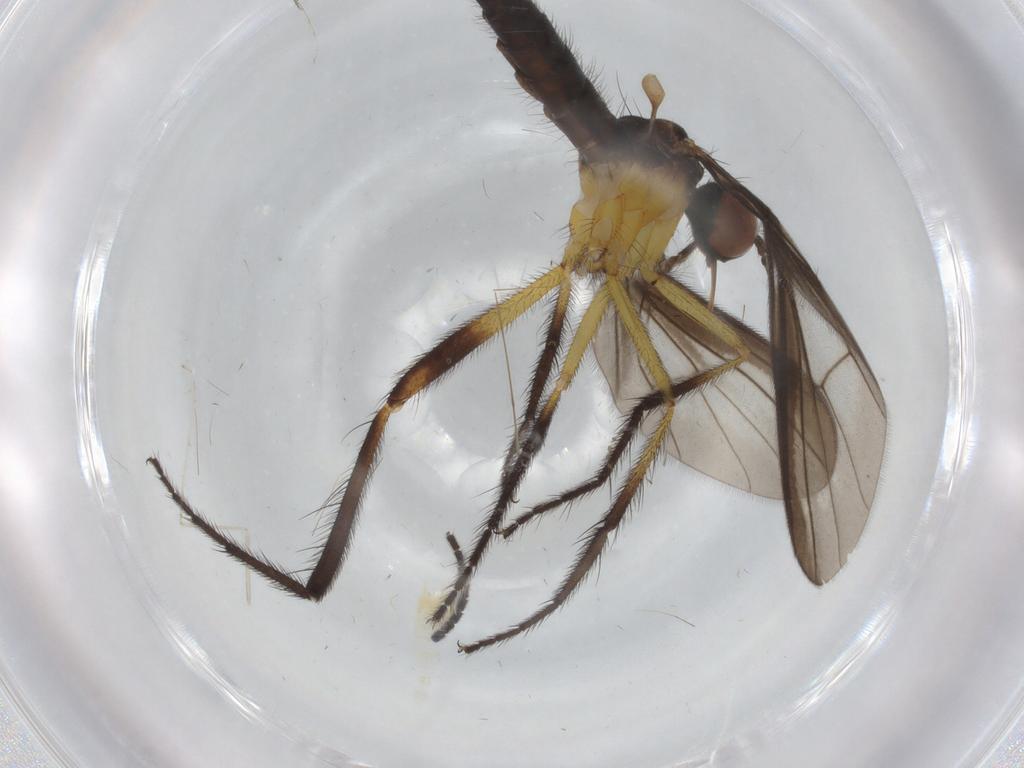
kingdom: Animalia
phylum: Arthropoda
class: Insecta
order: Diptera
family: Empididae
